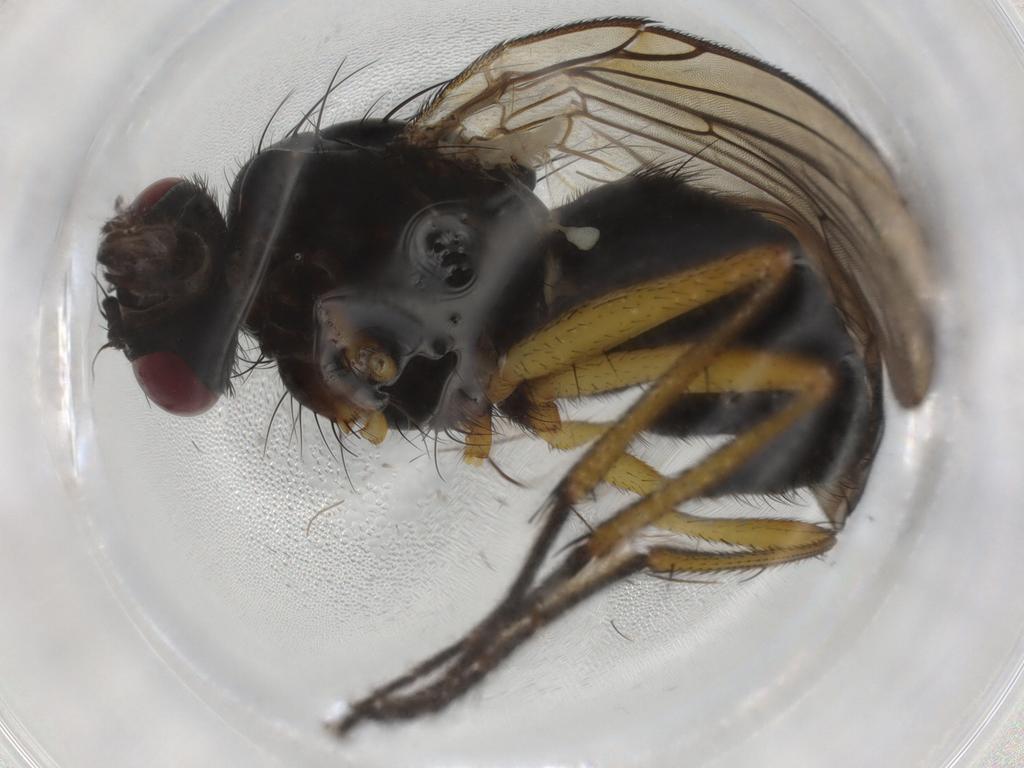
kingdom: Animalia
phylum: Arthropoda
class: Insecta
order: Diptera
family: Muscidae
